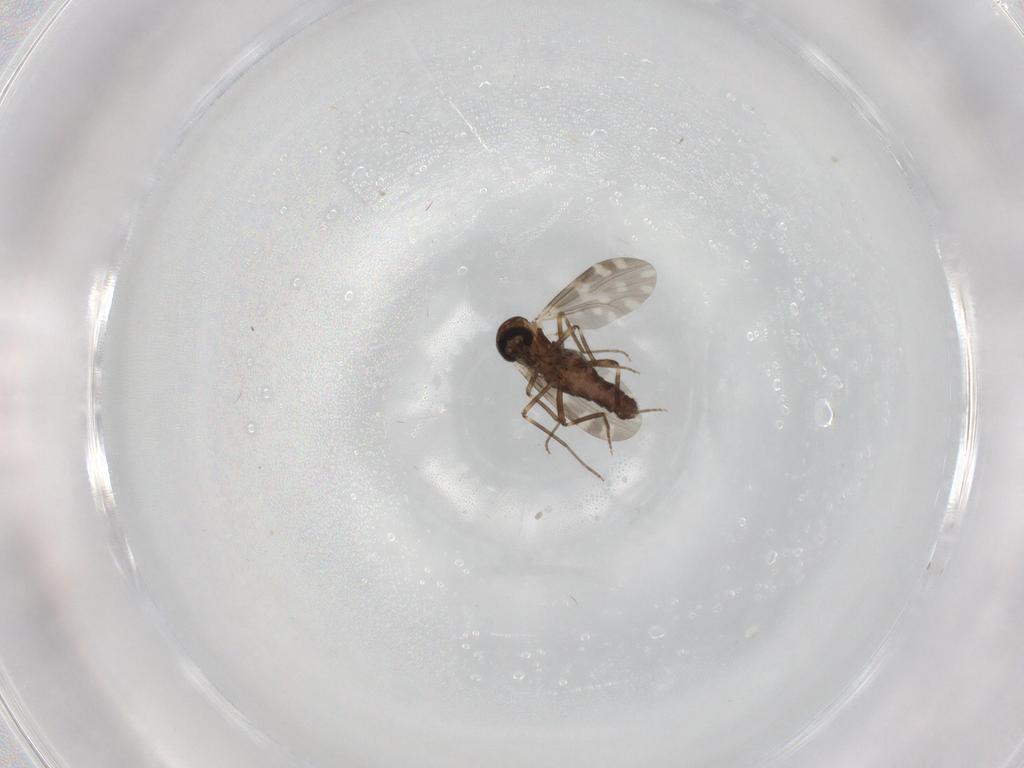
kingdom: Animalia
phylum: Arthropoda
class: Insecta
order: Diptera
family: Ceratopogonidae
